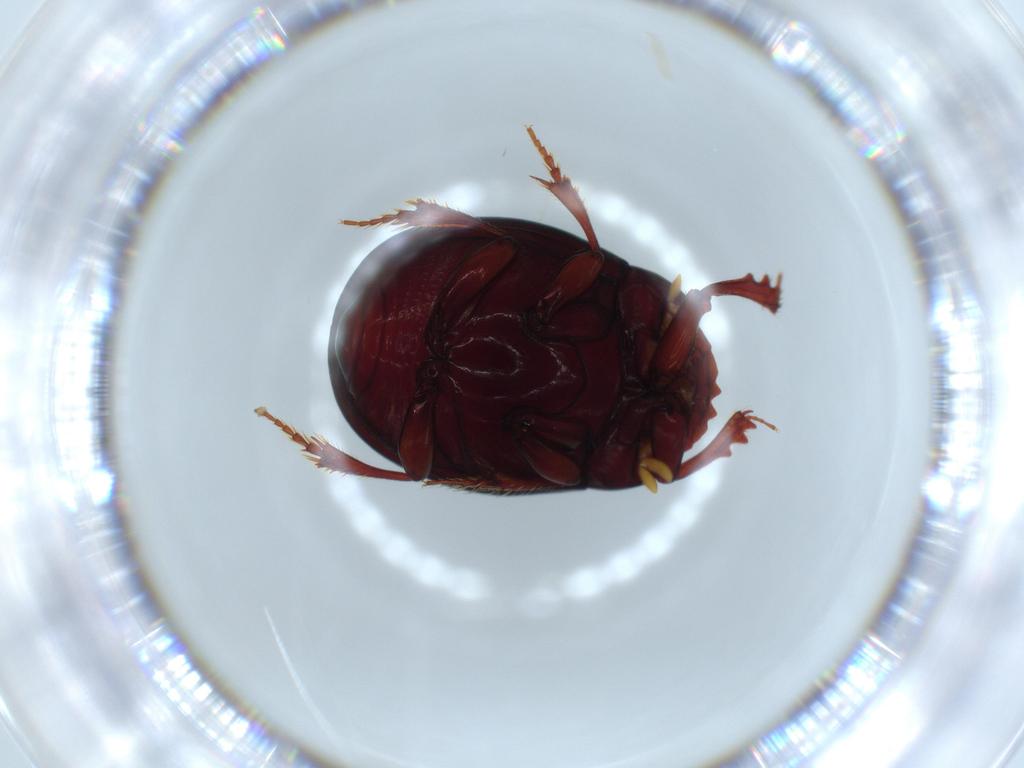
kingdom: Animalia
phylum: Arthropoda
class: Insecta
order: Coleoptera
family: Scarabaeidae
